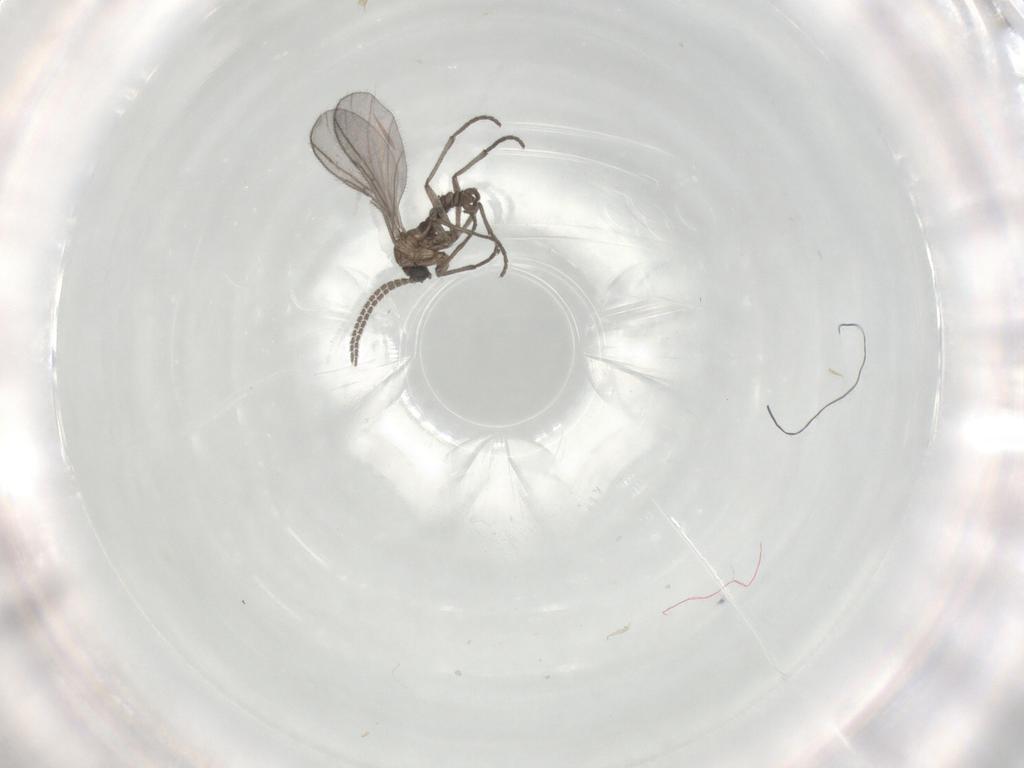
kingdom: Animalia
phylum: Arthropoda
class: Insecta
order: Diptera
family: Sciaridae
